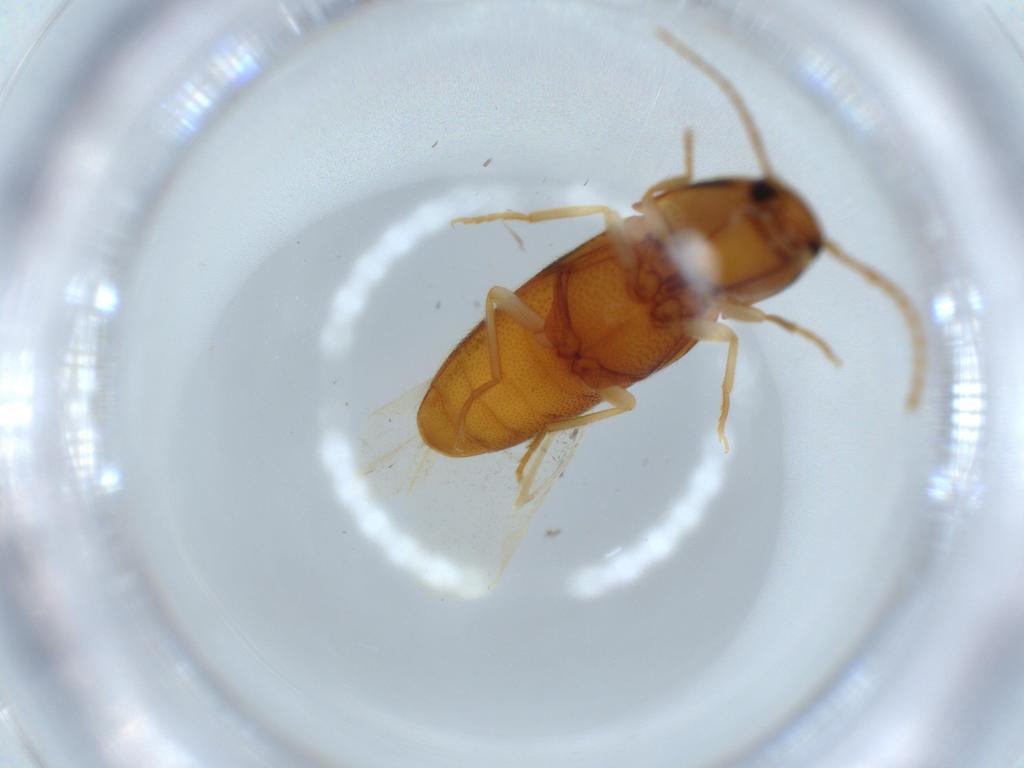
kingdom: Animalia
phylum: Arthropoda
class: Insecta
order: Coleoptera
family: Elateridae
